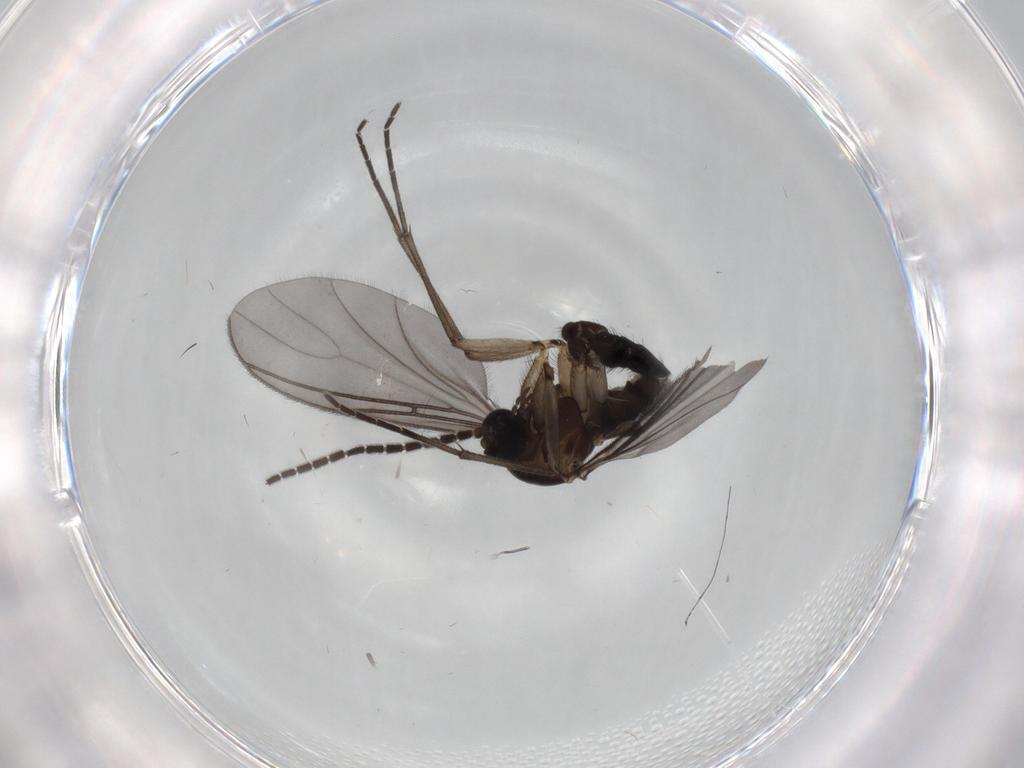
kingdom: Animalia
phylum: Arthropoda
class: Insecta
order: Diptera
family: Sciaridae
